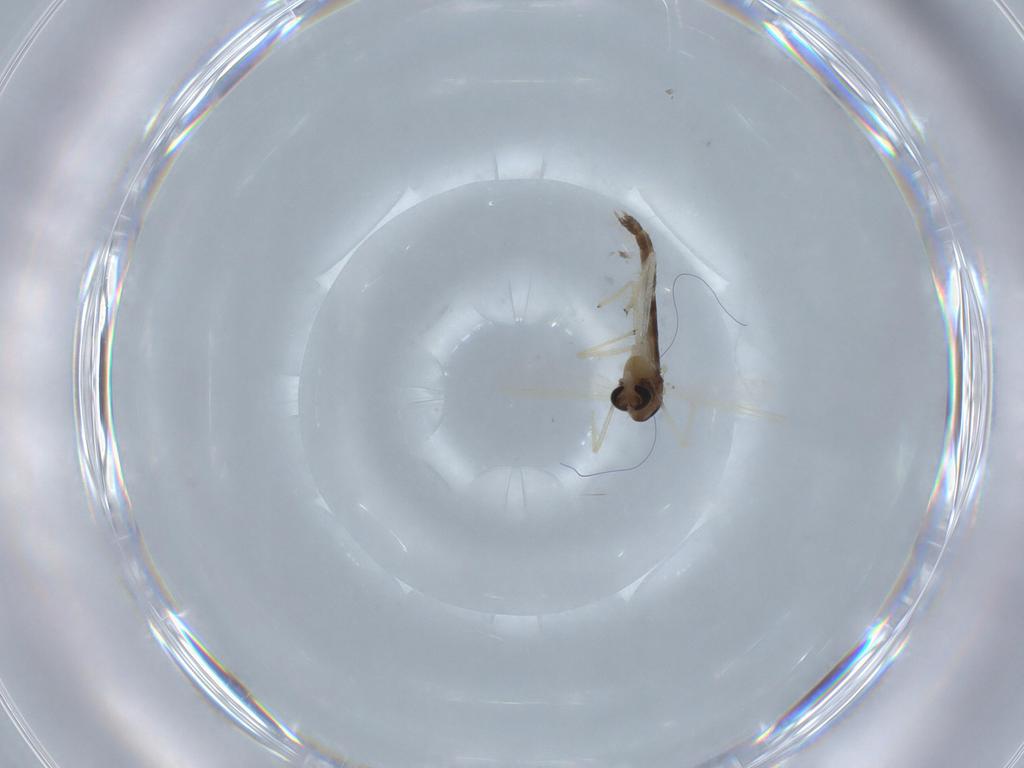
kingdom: Animalia
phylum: Arthropoda
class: Insecta
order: Diptera
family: Chironomidae
